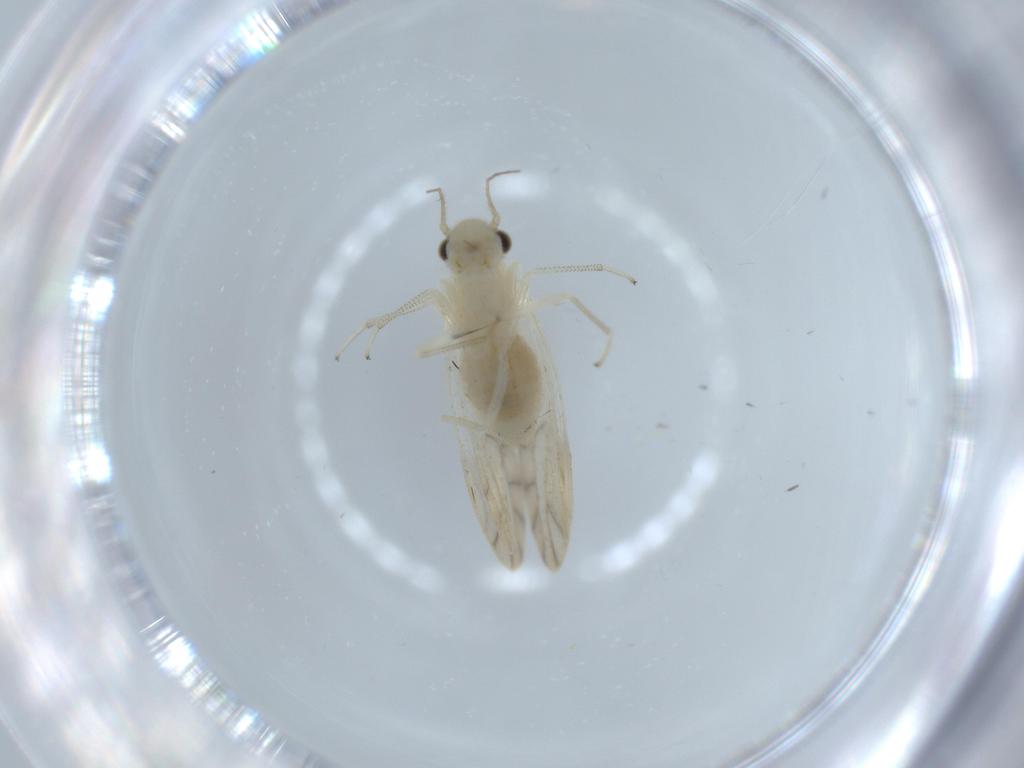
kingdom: Animalia
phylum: Arthropoda
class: Insecta
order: Psocodea
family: Caeciliusidae
